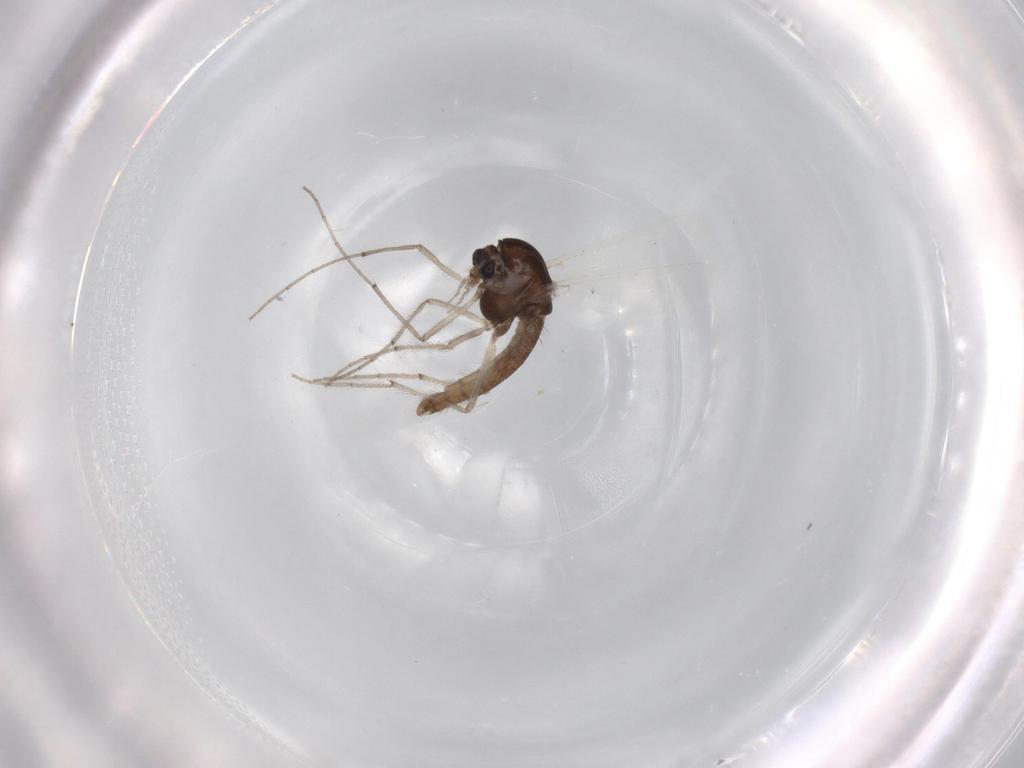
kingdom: Animalia
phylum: Arthropoda
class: Insecta
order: Diptera
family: Chironomidae
